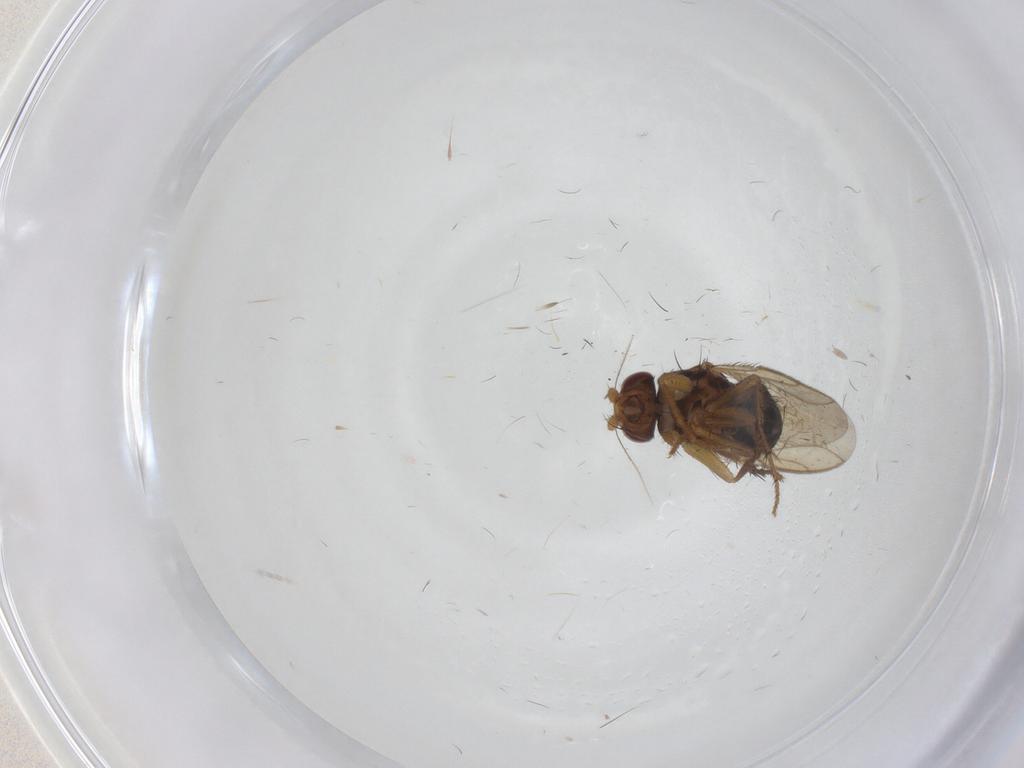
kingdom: Animalia
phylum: Arthropoda
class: Insecta
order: Diptera
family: Sphaeroceridae
